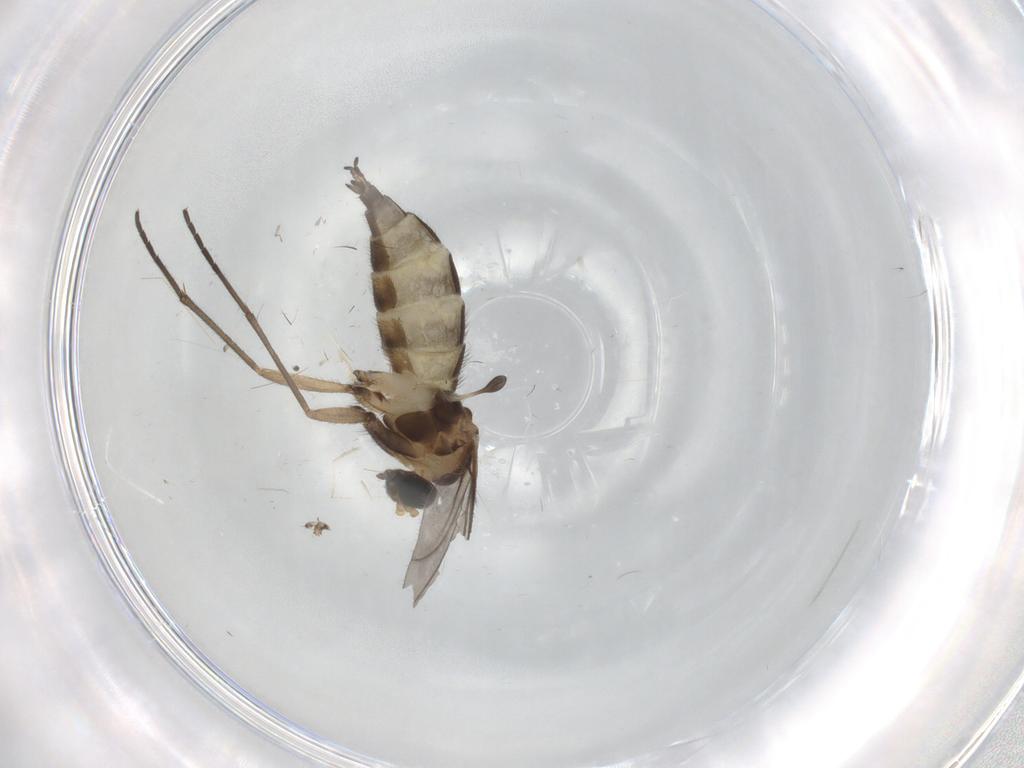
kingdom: Animalia
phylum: Arthropoda
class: Insecta
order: Diptera
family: Sciaridae
